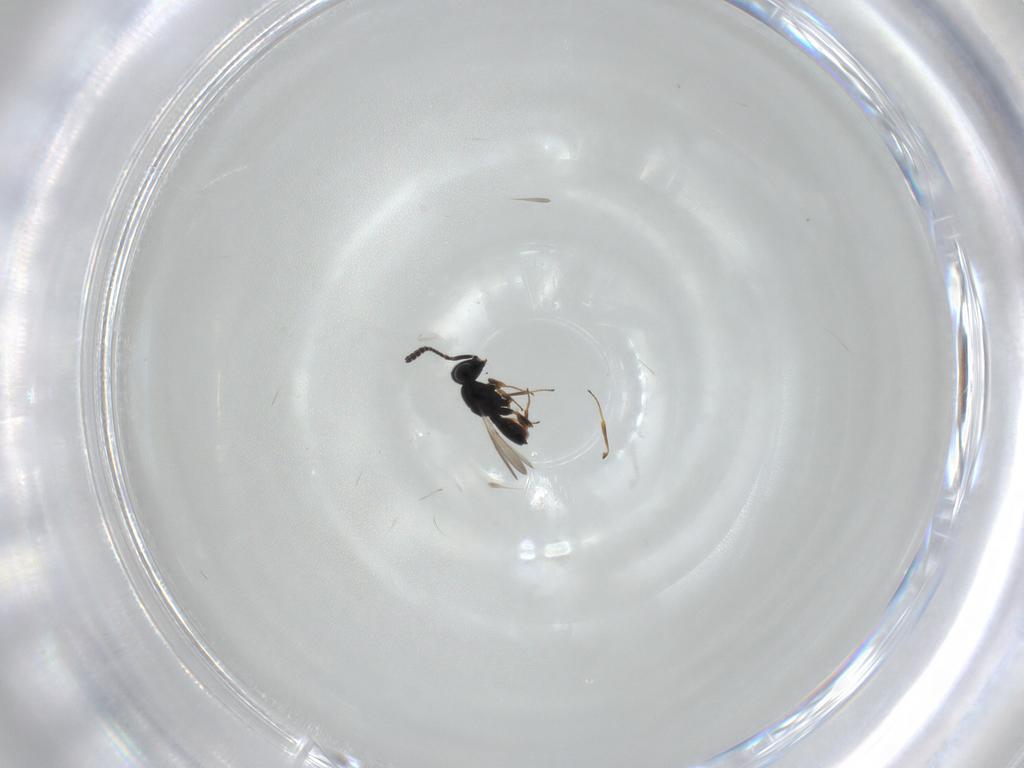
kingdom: Animalia
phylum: Arthropoda
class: Insecta
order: Hymenoptera
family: Scelionidae
